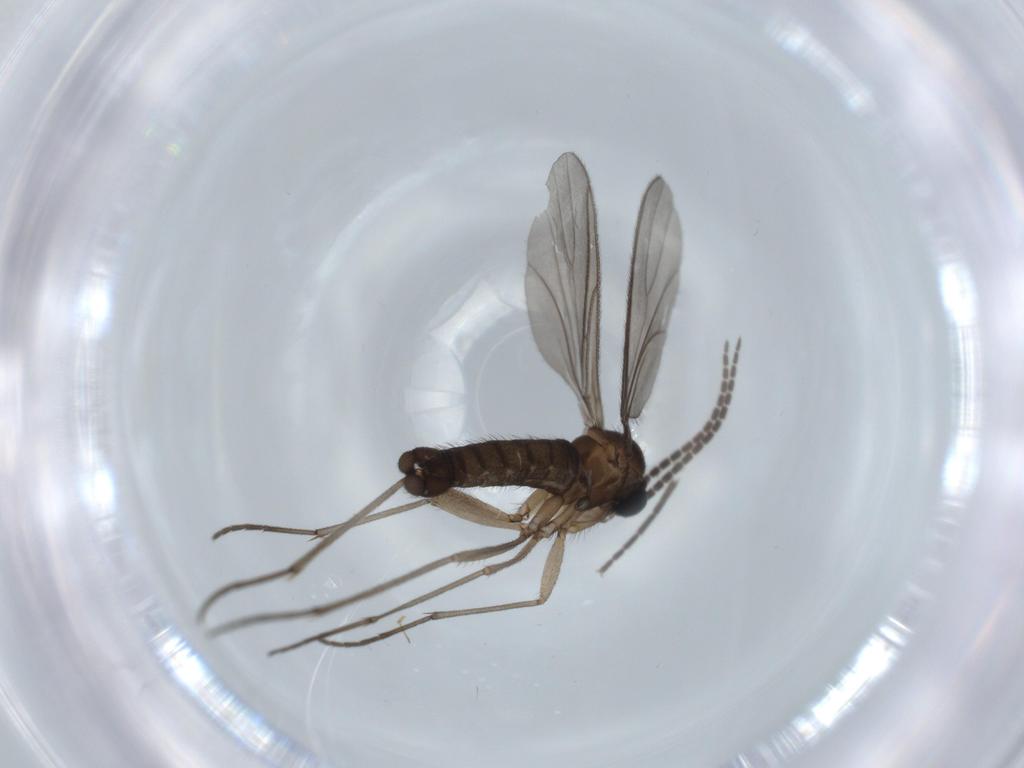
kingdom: Animalia
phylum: Arthropoda
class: Insecta
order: Diptera
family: Sciaridae
